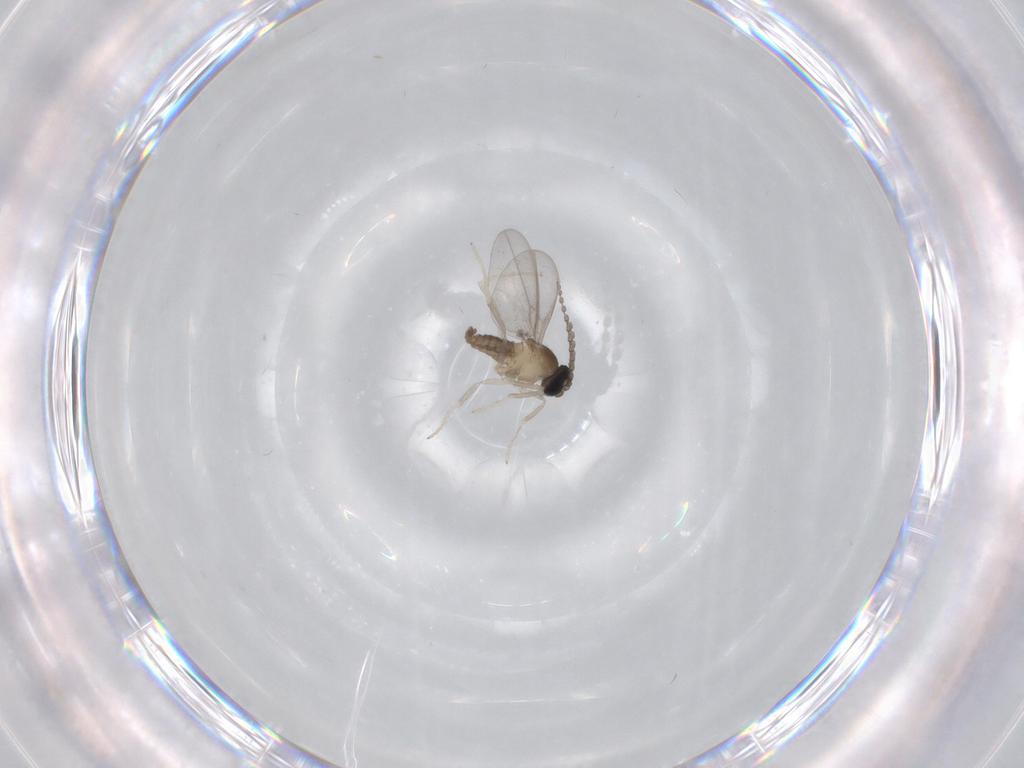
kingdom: Animalia
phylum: Arthropoda
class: Insecta
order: Diptera
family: Cecidomyiidae
